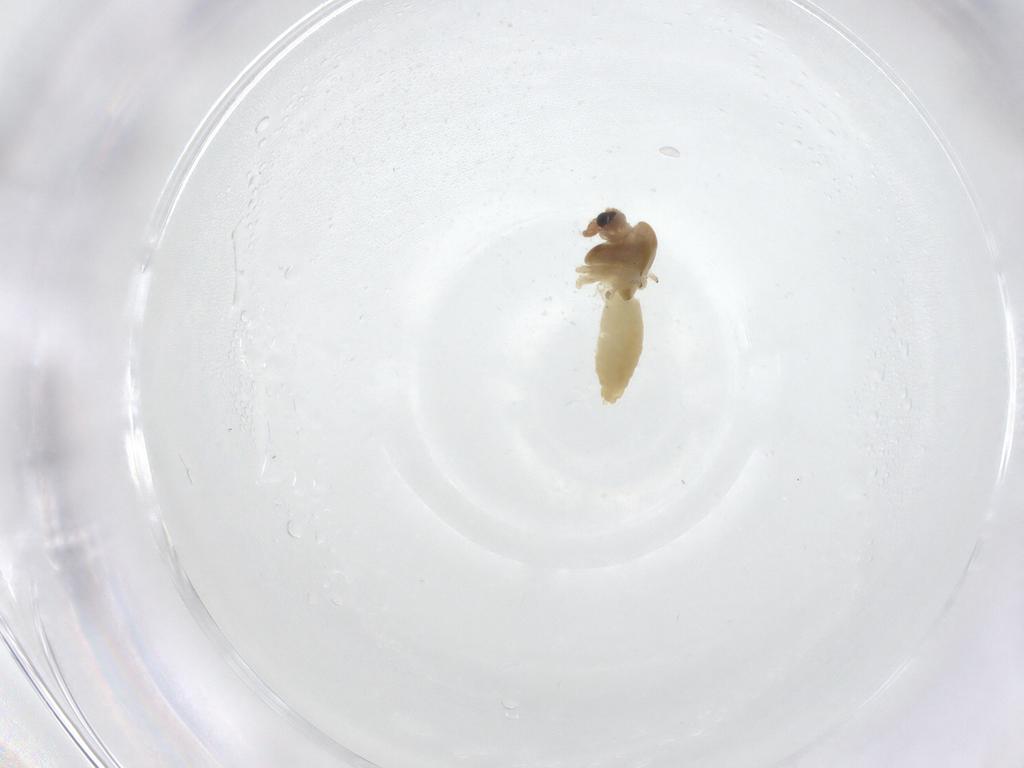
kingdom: Animalia
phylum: Arthropoda
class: Insecta
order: Diptera
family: Chironomidae
